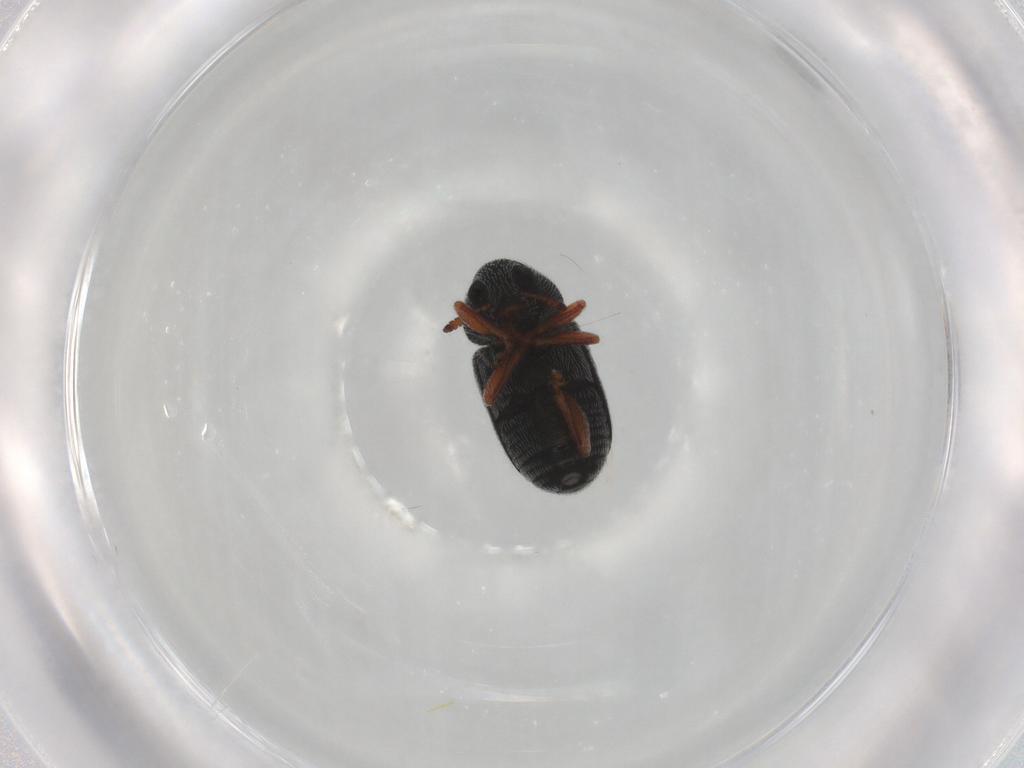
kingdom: Animalia
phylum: Arthropoda
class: Insecta
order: Coleoptera
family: Anthribidae
